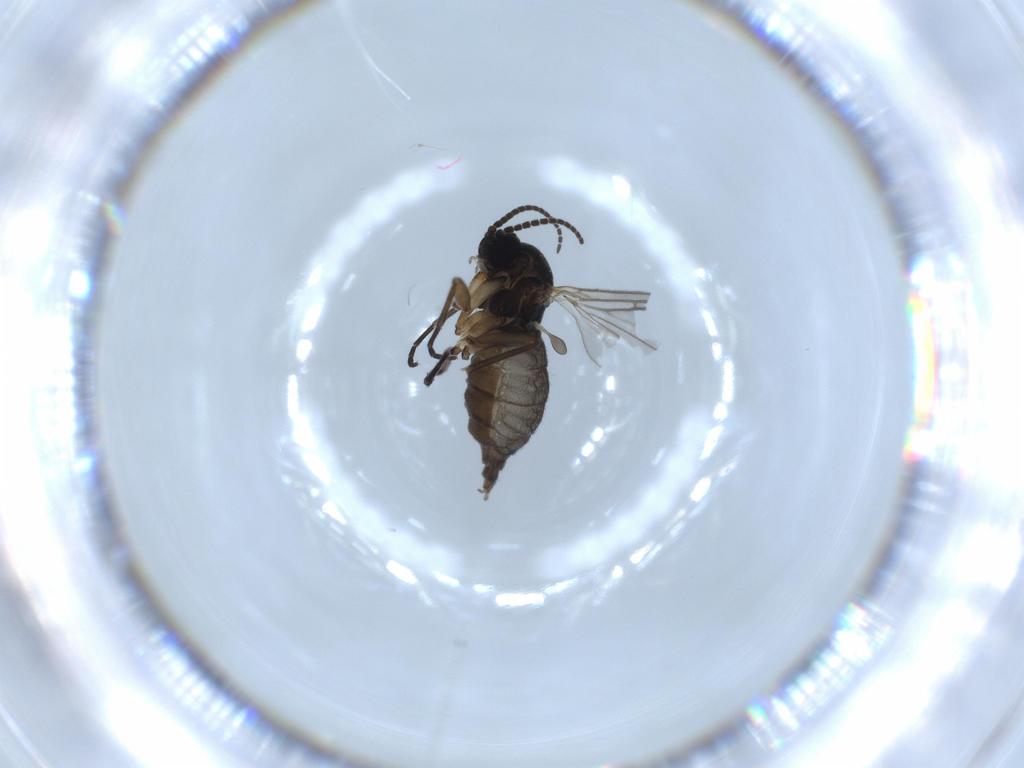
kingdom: Animalia
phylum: Arthropoda
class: Insecta
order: Diptera
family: Sciaridae
